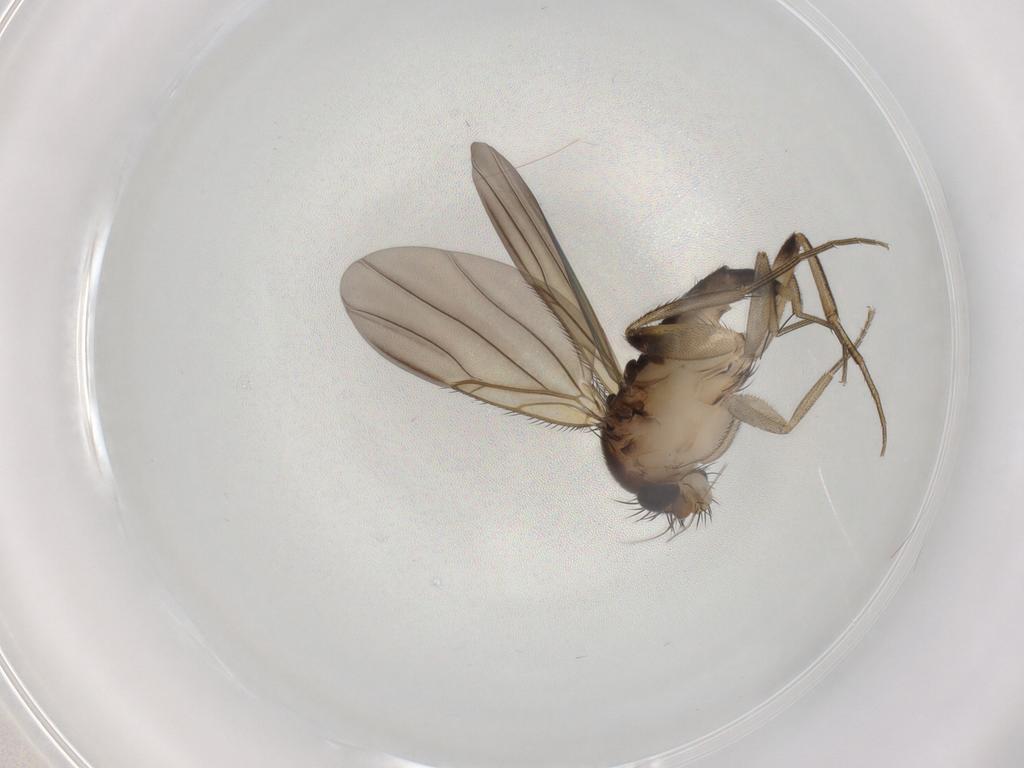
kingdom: Animalia
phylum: Arthropoda
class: Insecta
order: Diptera
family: Phoridae
